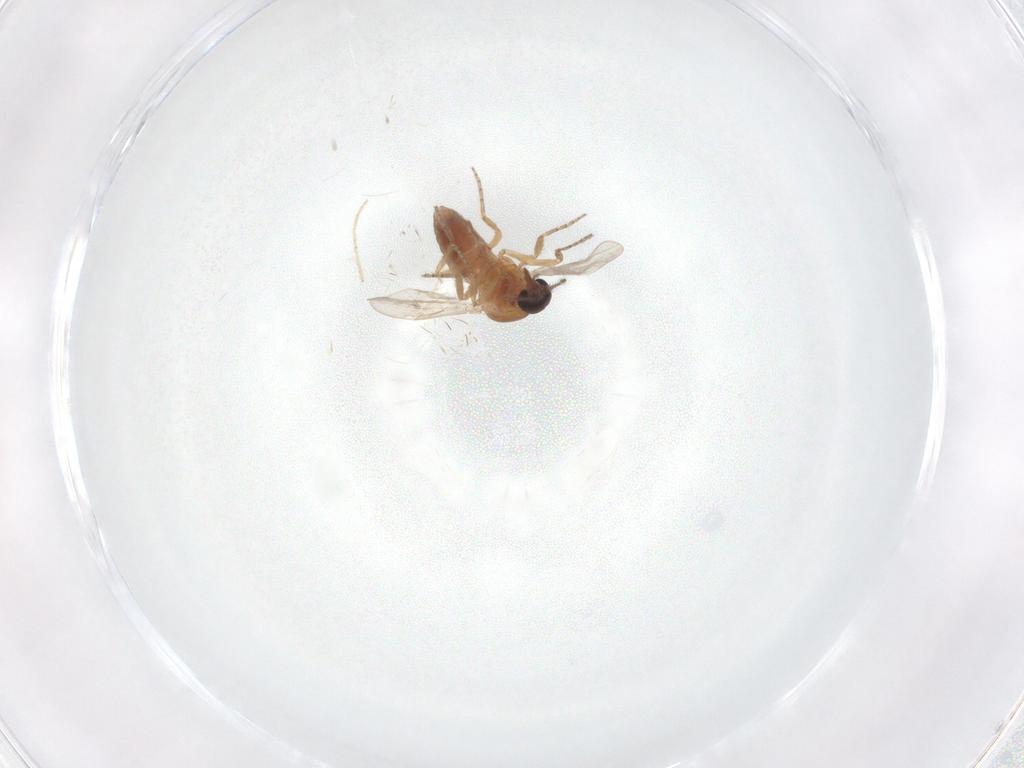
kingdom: Animalia
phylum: Arthropoda
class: Insecta
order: Diptera
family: Ceratopogonidae
